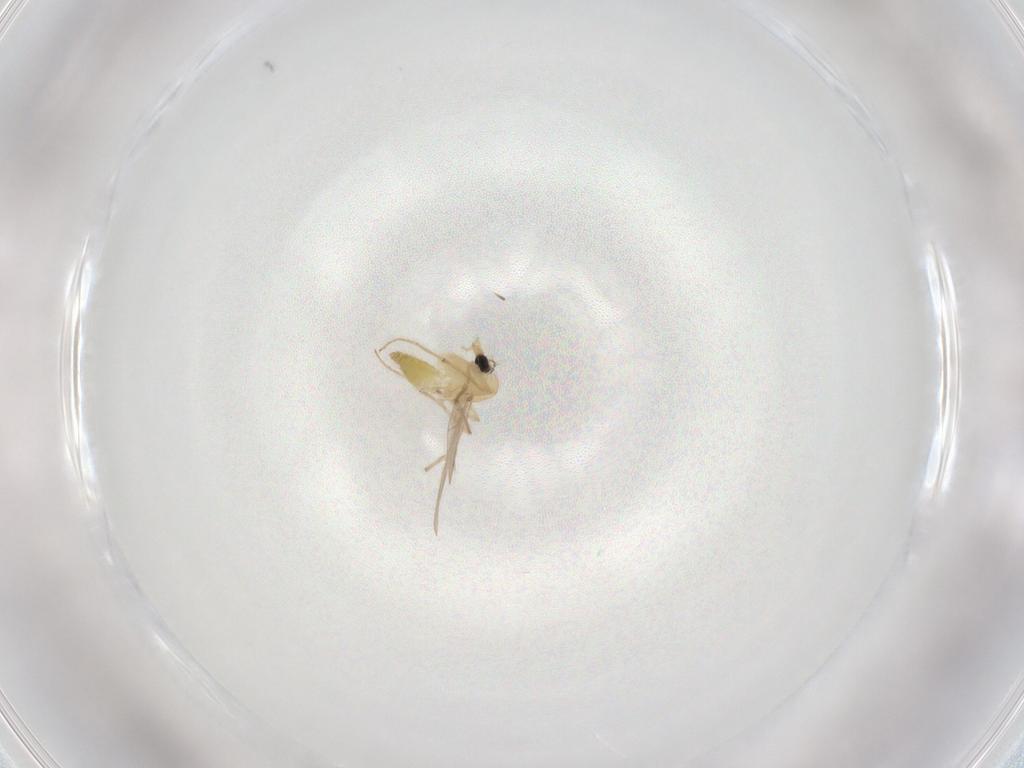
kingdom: Animalia
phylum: Arthropoda
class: Insecta
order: Diptera
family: Chironomidae
